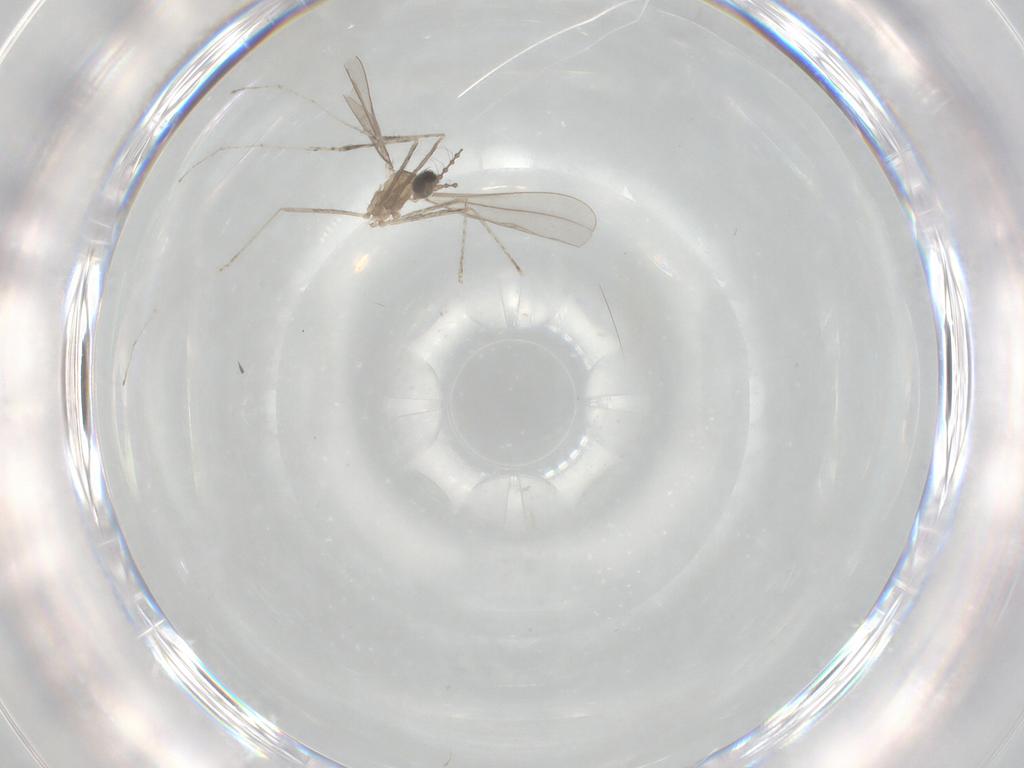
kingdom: Animalia
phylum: Arthropoda
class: Insecta
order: Diptera
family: Cecidomyiidae
